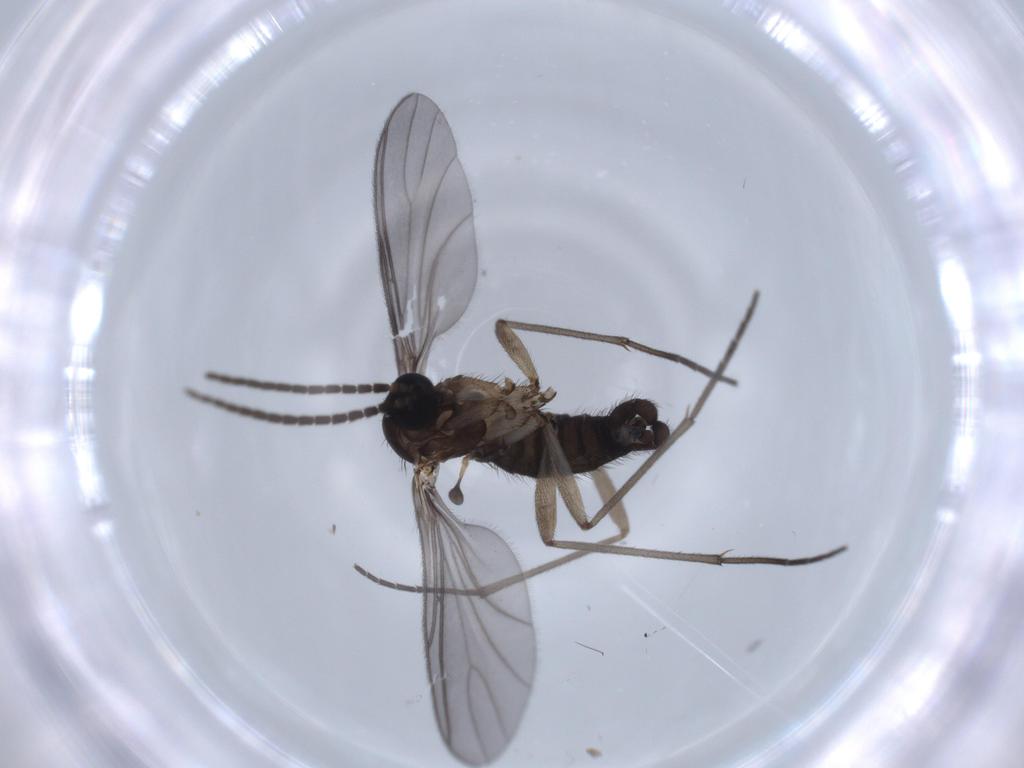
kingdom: Animalia
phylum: Arthropoda
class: Insecta
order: Diptera
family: Sciaridae
